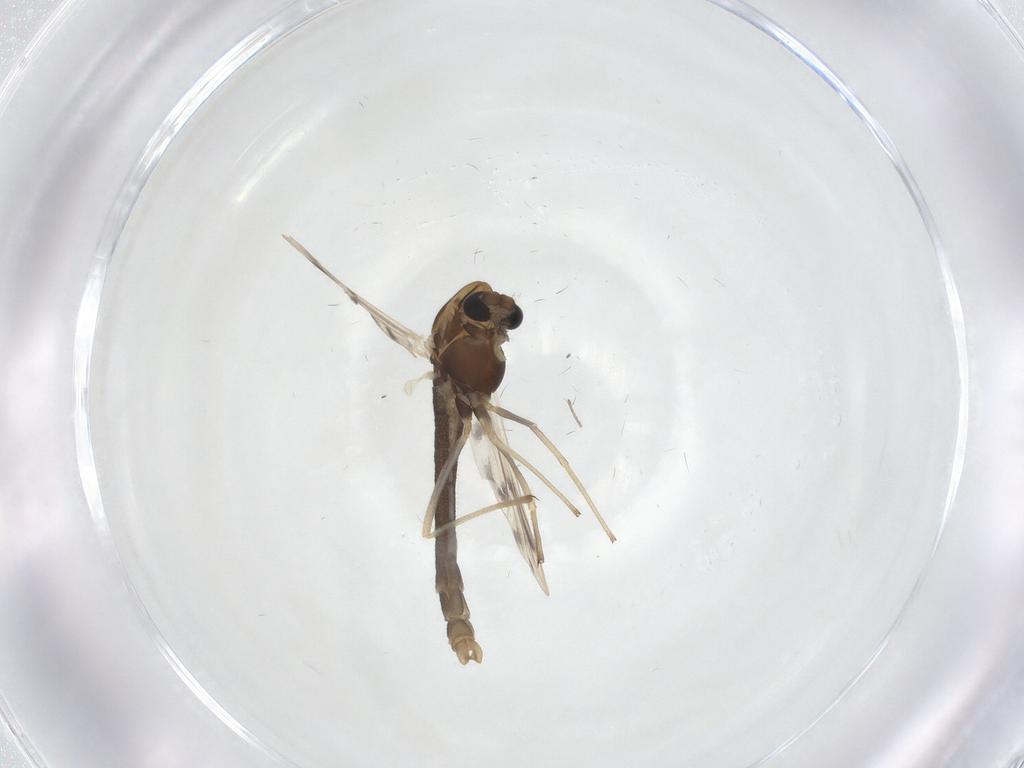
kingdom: Animalia
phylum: Arthropoda
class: Insecta
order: Diptera
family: Chironomidae
